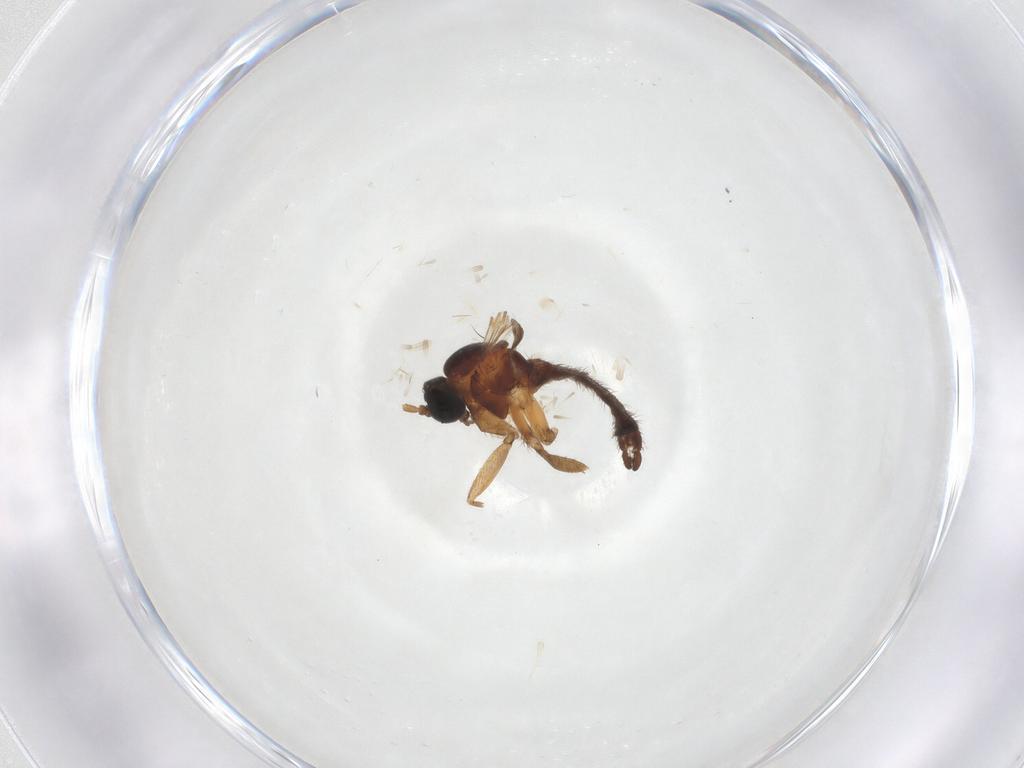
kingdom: Animalia
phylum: Arthropoda
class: Insecta
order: Diptera
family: Sciaridae
